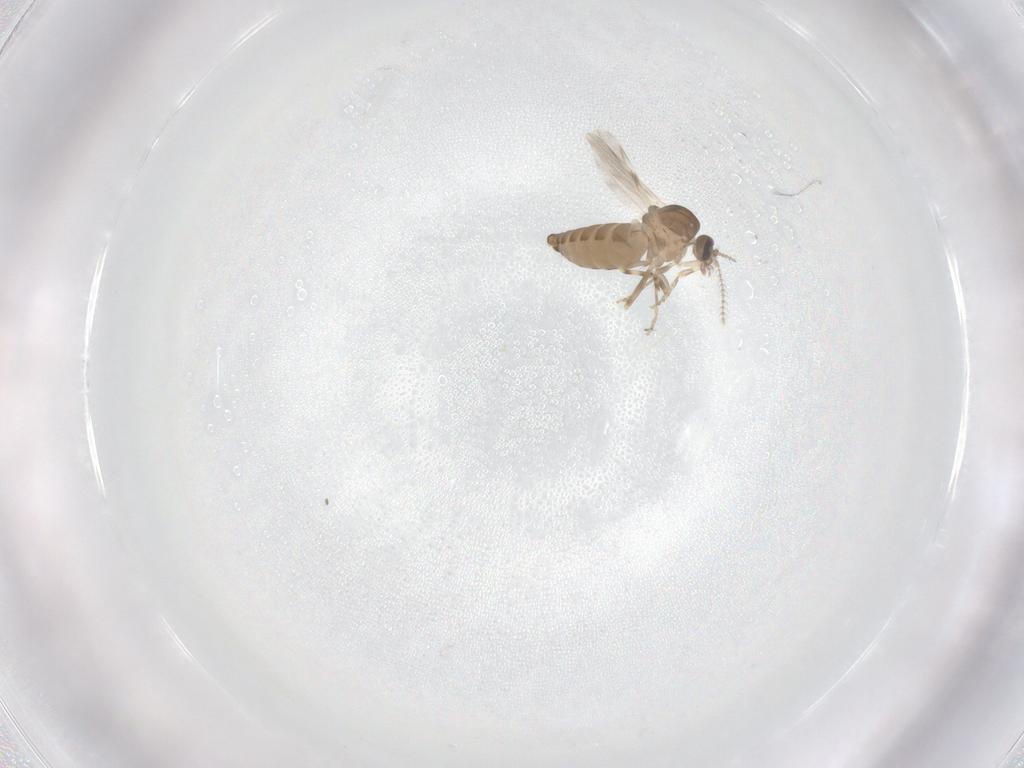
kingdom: Animalia
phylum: Arthropoda
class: Insecta
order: Diptera
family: Ceratopogonidae
